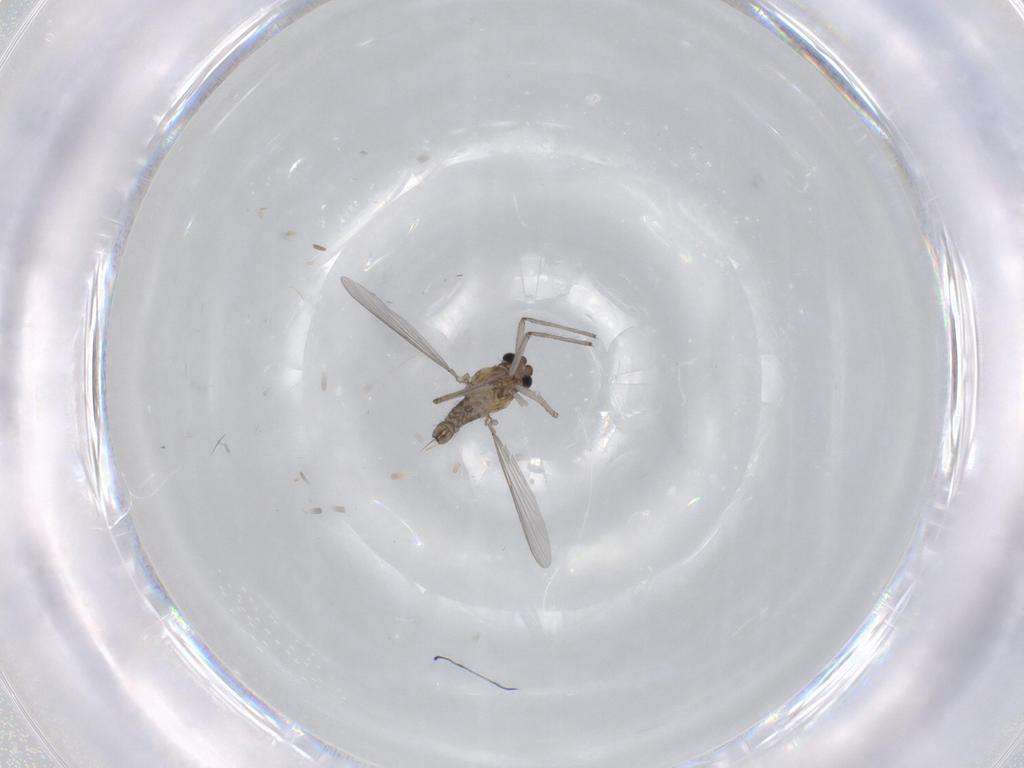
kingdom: Animalia
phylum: Arthropoda
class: Insecta
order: Diptera
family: Chironomidae
